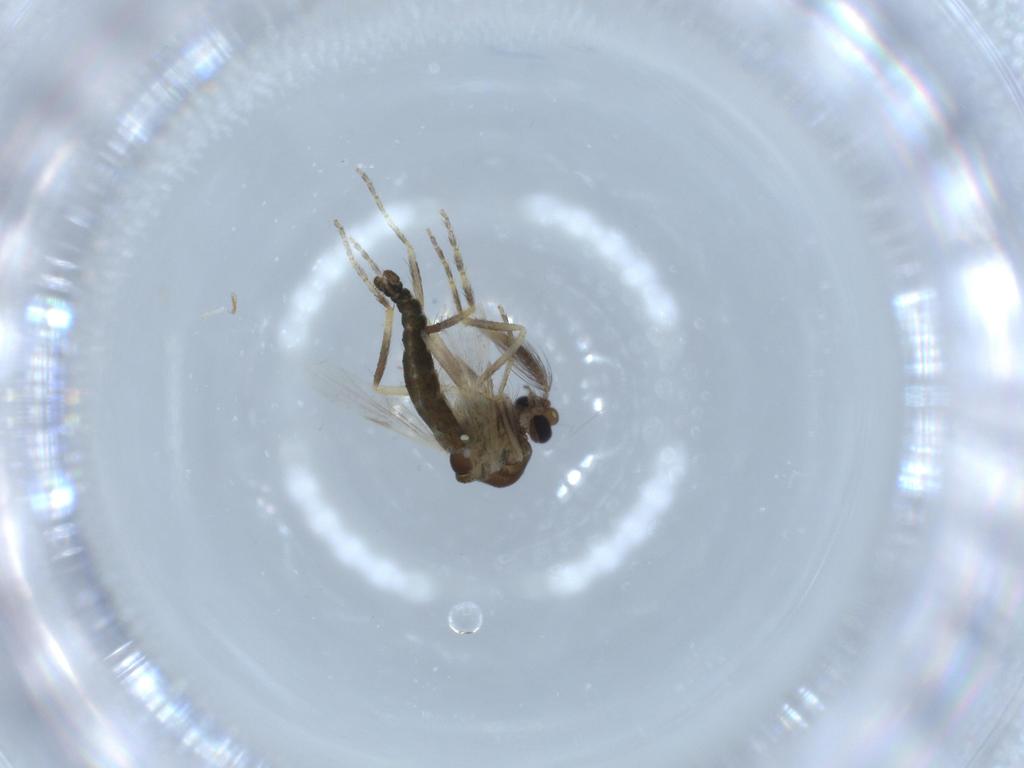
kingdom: Animalia
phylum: Arthropoda
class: Insecta
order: Diptera
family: Ceratopogonidae
